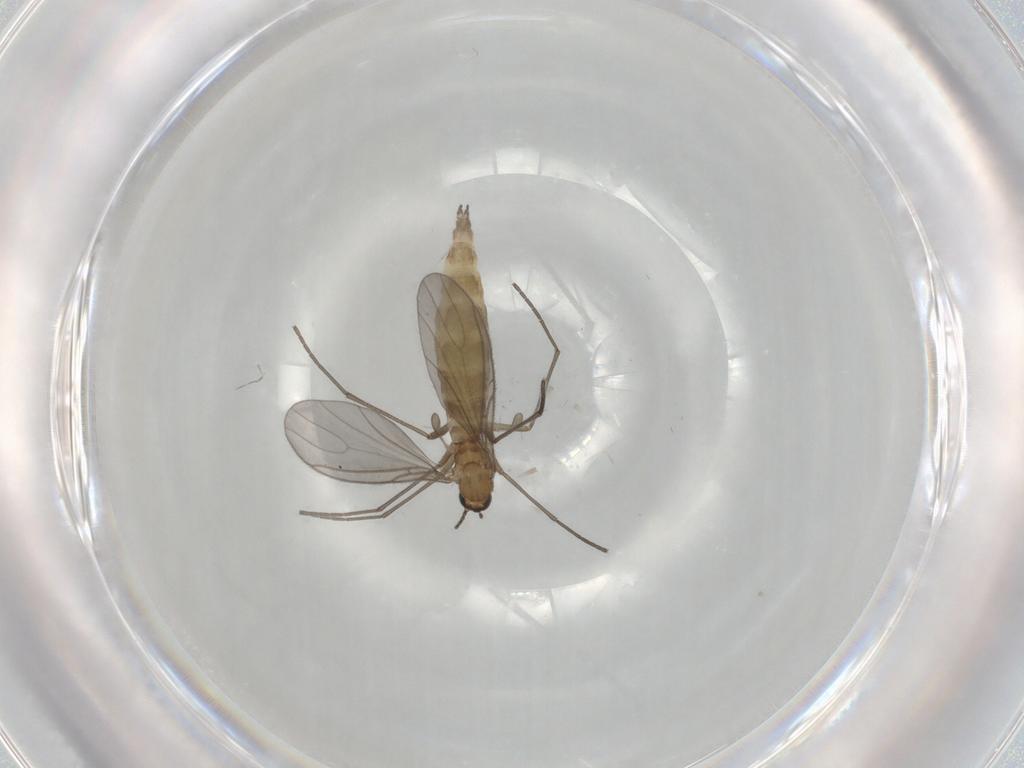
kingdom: Animalia
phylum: Arthropoda
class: Insecta
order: Diptera
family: Sciaridae
